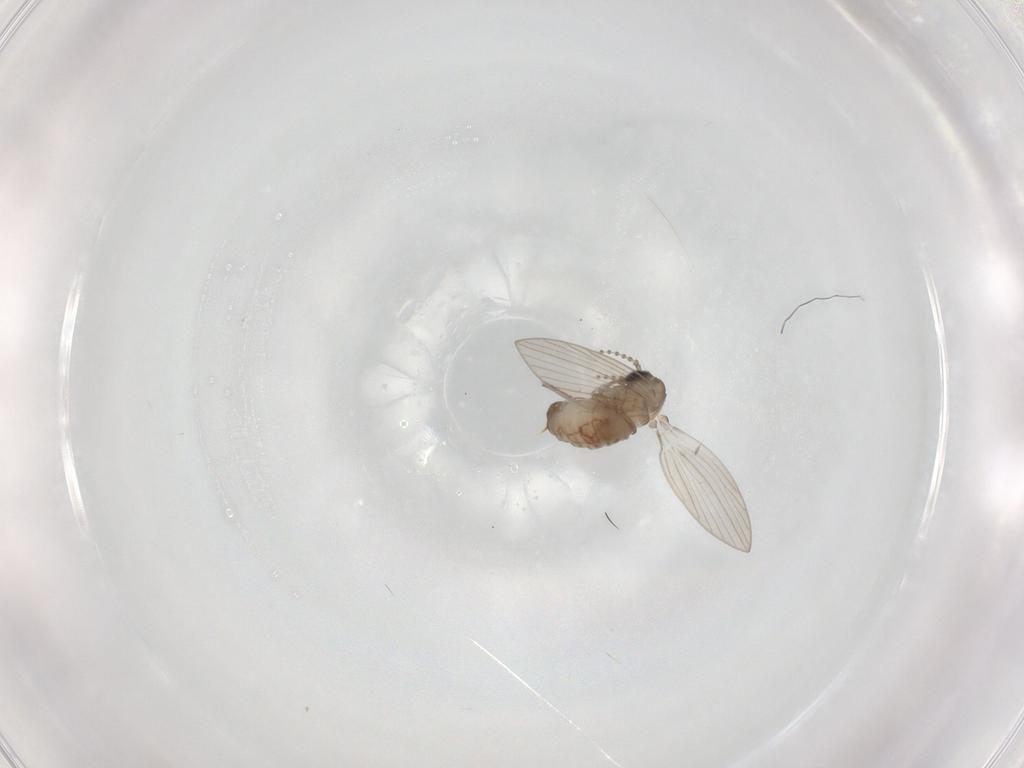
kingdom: Animalia
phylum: Arthropoda
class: Insecta
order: Diptera
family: Psychodidae
